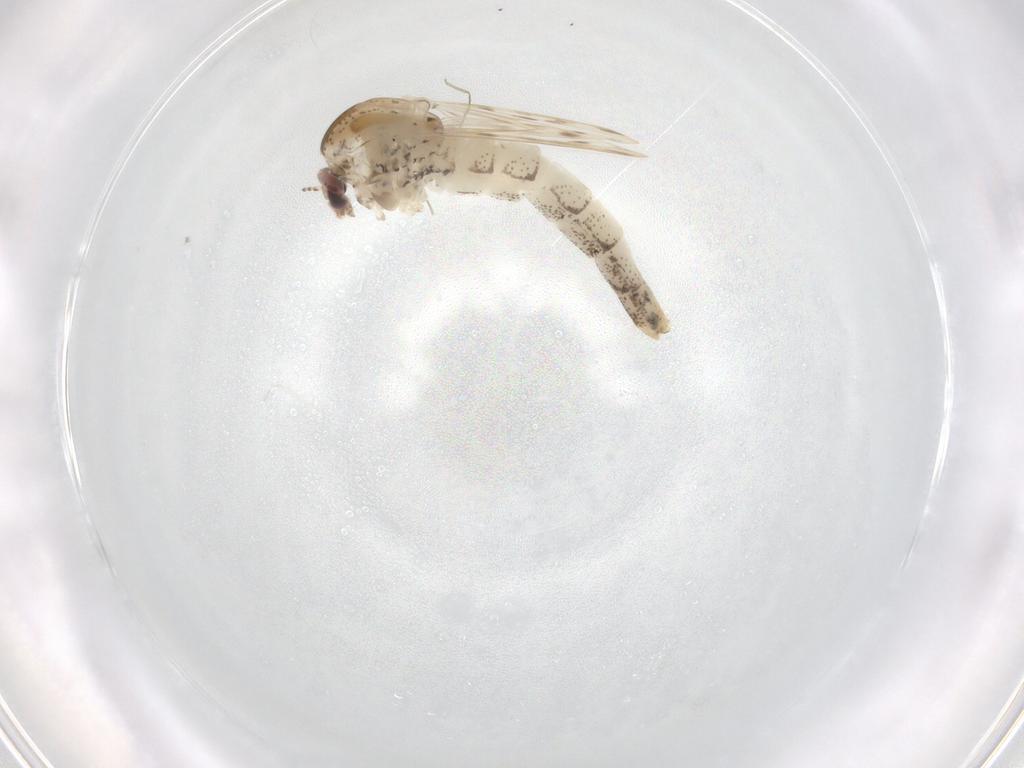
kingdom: Animalia
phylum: Arthropoda
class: Insecta
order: Diptera
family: Chaoboridae
